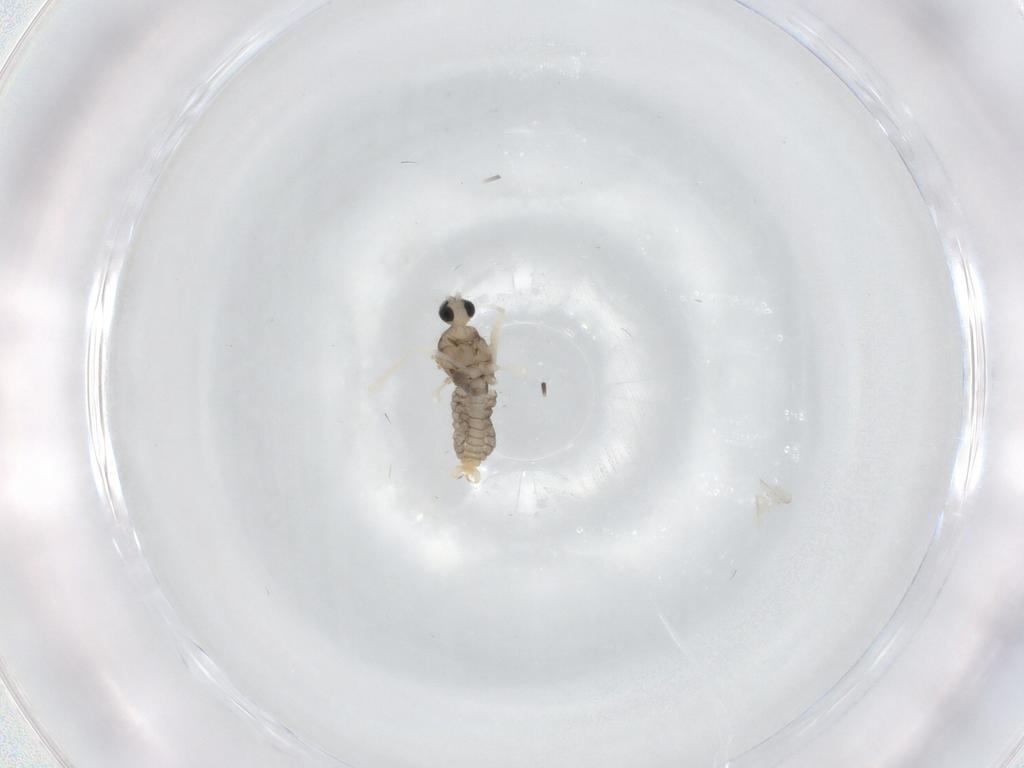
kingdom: Animalia
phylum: Arthropoda
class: Insecta
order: Diptera
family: Cecidomyiidae
